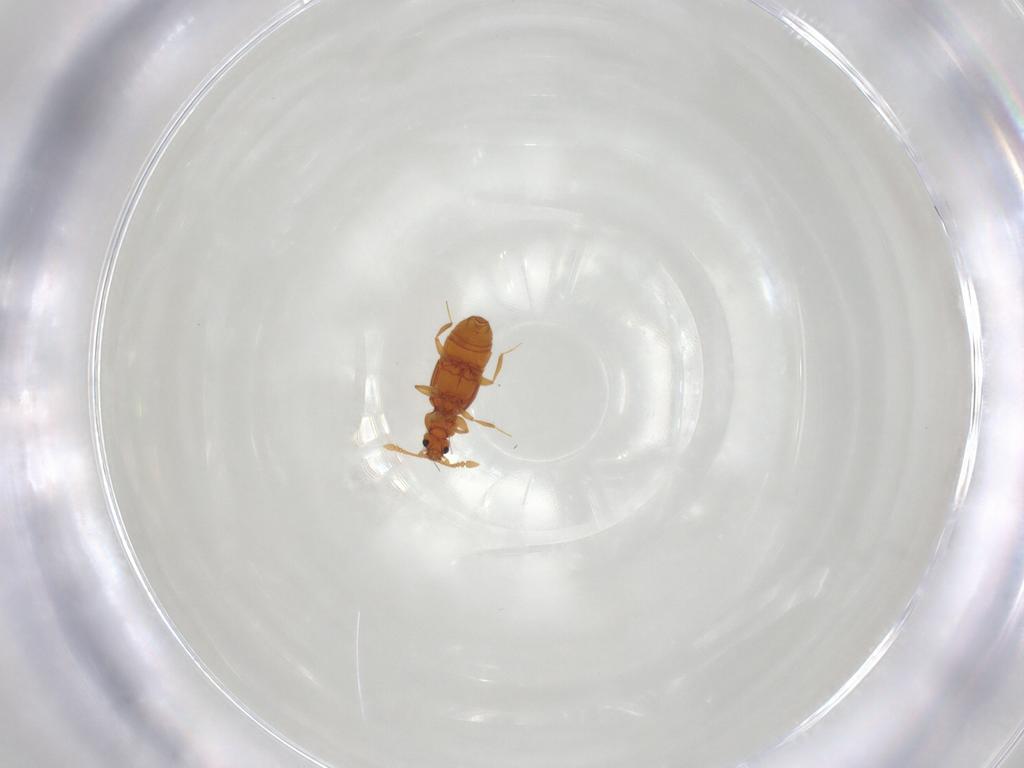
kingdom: Animalia
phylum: Arthropoda
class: Insecta
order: Coleoptera
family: Staphylinidae
